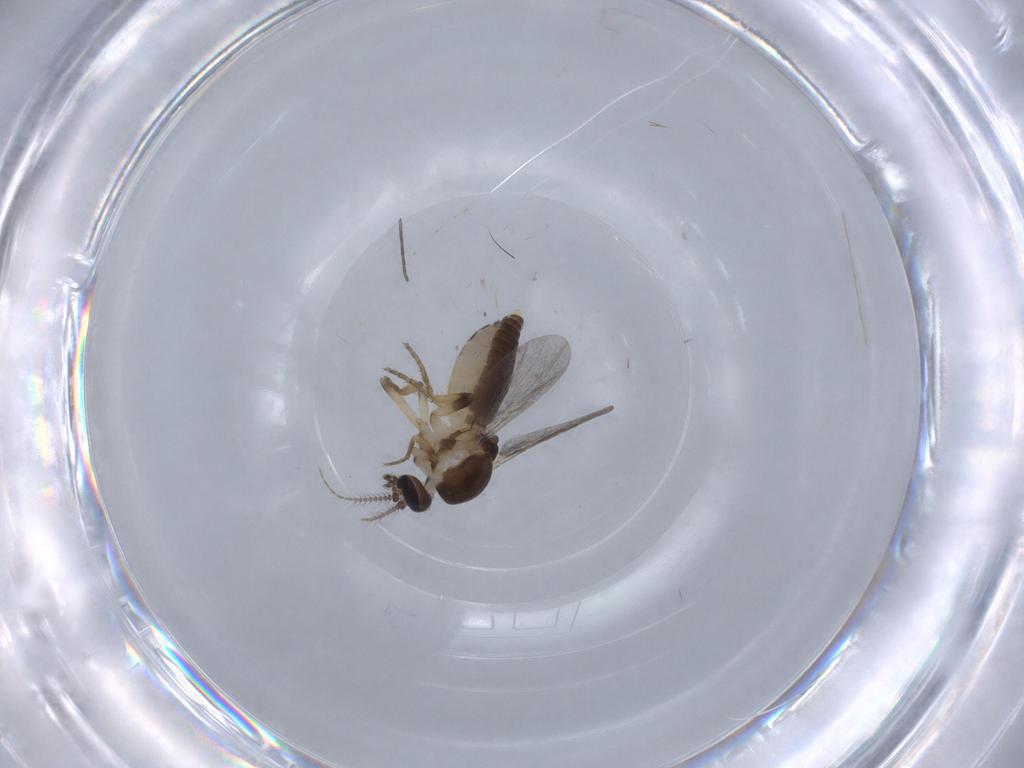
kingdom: Animalia
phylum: Arthropoda
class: Insecta
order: Diptera
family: Ceratopogonidae
